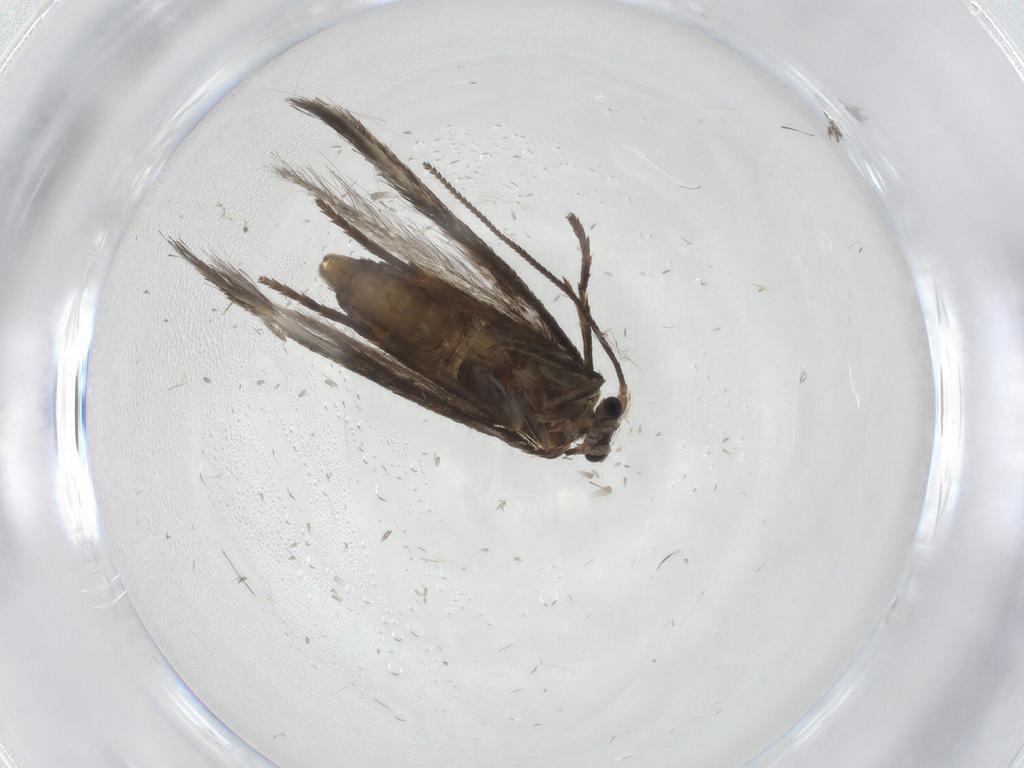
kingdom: Animalia
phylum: Arthropoda
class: Insecta
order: Lepidoptera
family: Nepticulidae
